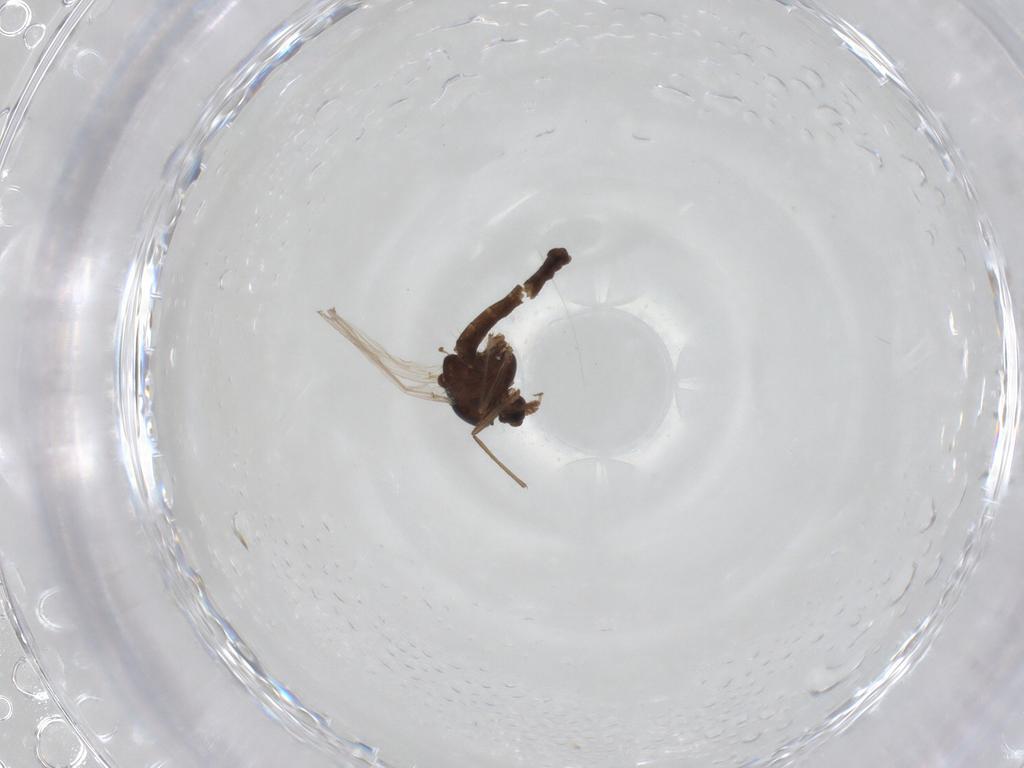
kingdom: Animalia
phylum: Arthropoda
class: Insecta
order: Diptera
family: Chironomidae
